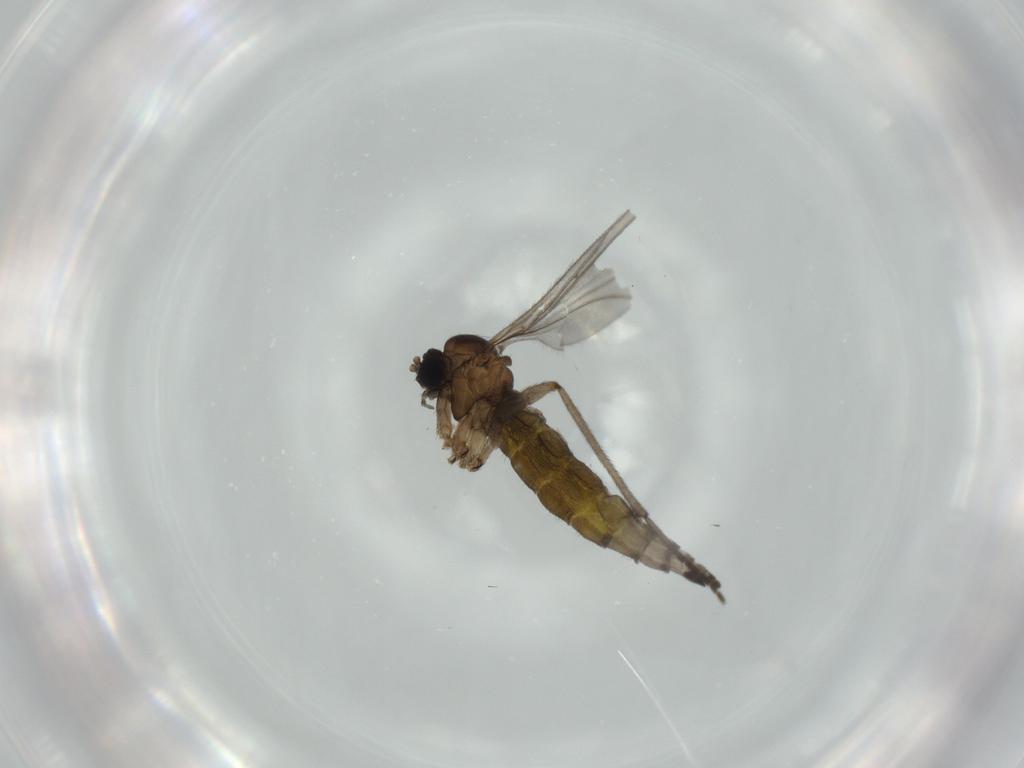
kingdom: Animalia
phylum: Arthropoda
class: Insecta
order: Diptera
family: Sciaridae
